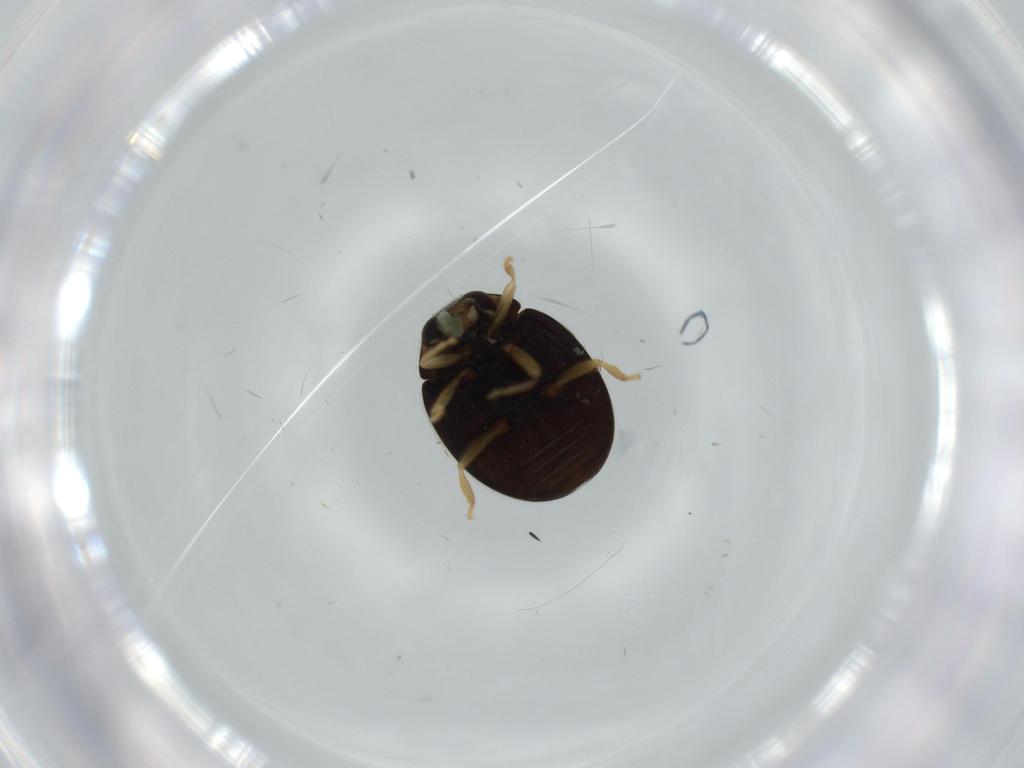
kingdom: Animalia
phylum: Arthropoda
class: Insecta
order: Coleoptera
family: Coccinellidae
